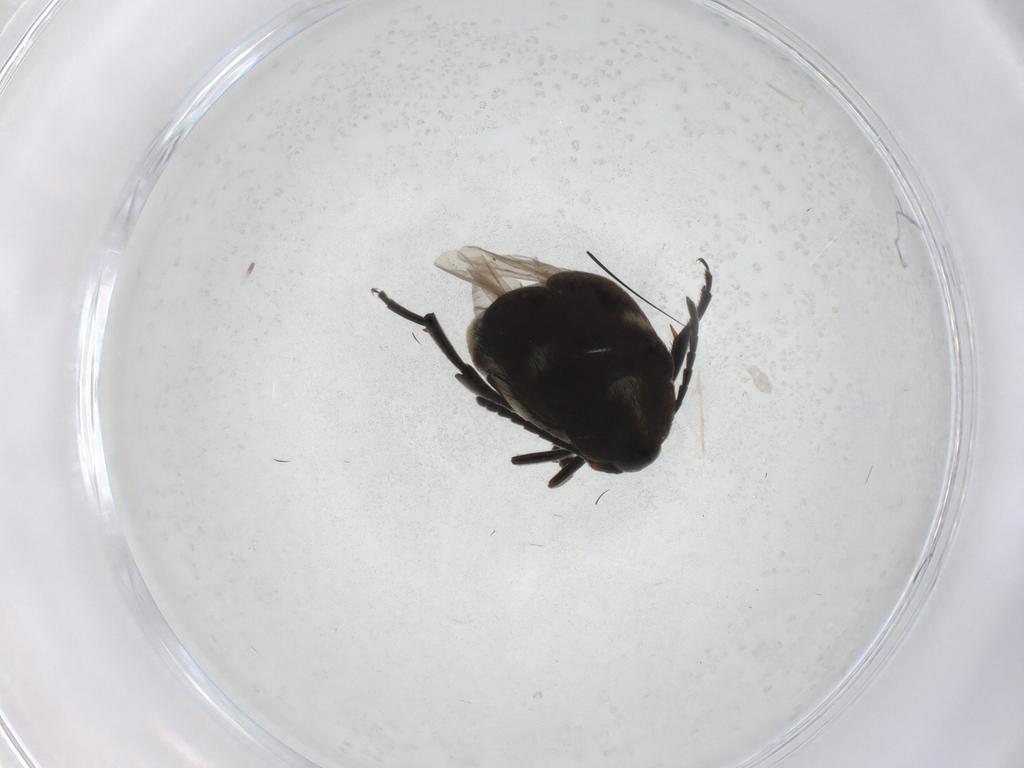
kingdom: Animalia
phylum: Arthropoda
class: Insecta
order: Coleoptera
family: Chrysomelidae
